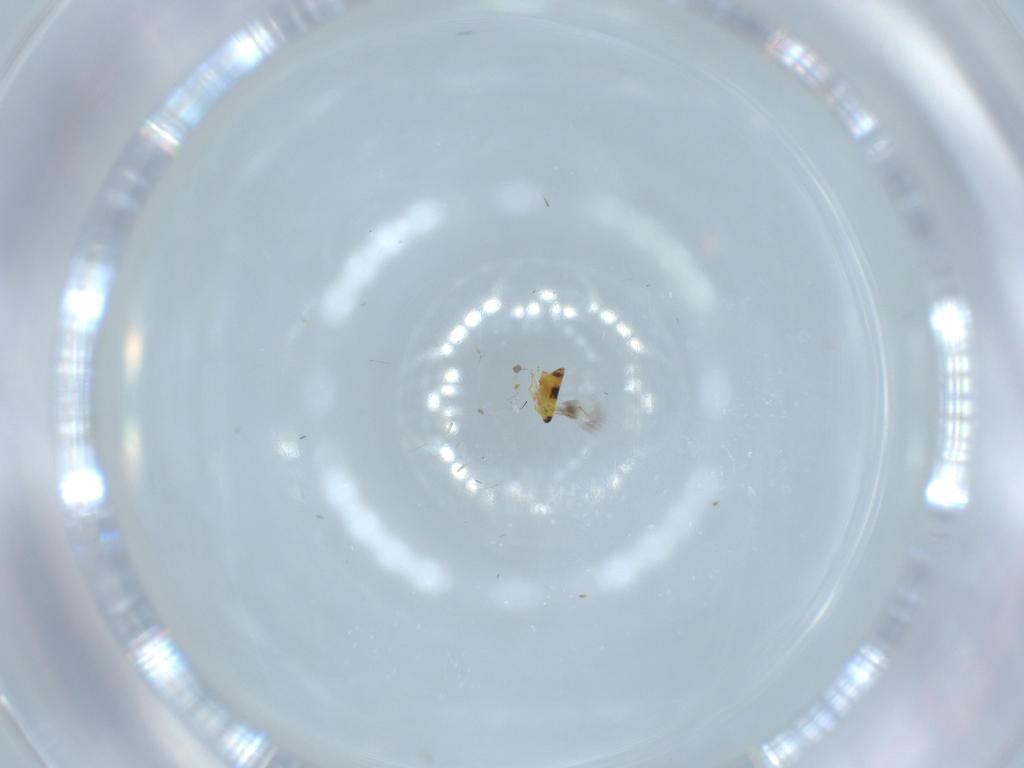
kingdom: Animalia
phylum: Arthropoda
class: Insecta
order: Hymenoptera
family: Signiphoridae
